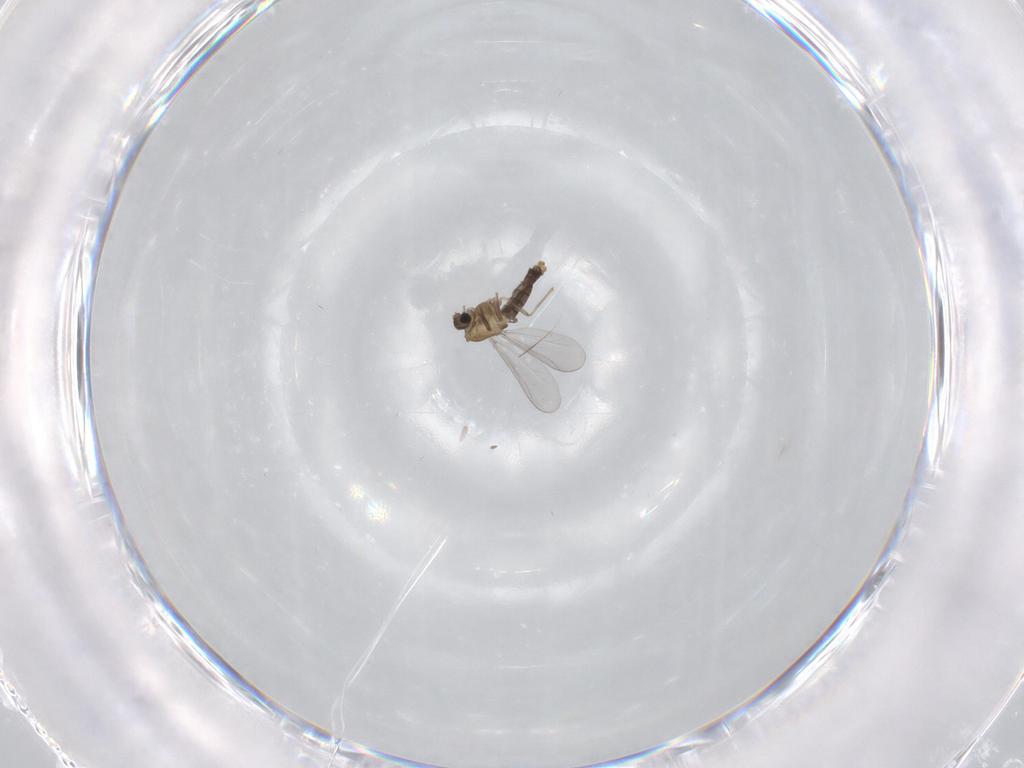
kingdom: Animalia
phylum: Arthropoda
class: Insecta
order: Diptera
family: Chironomidae
